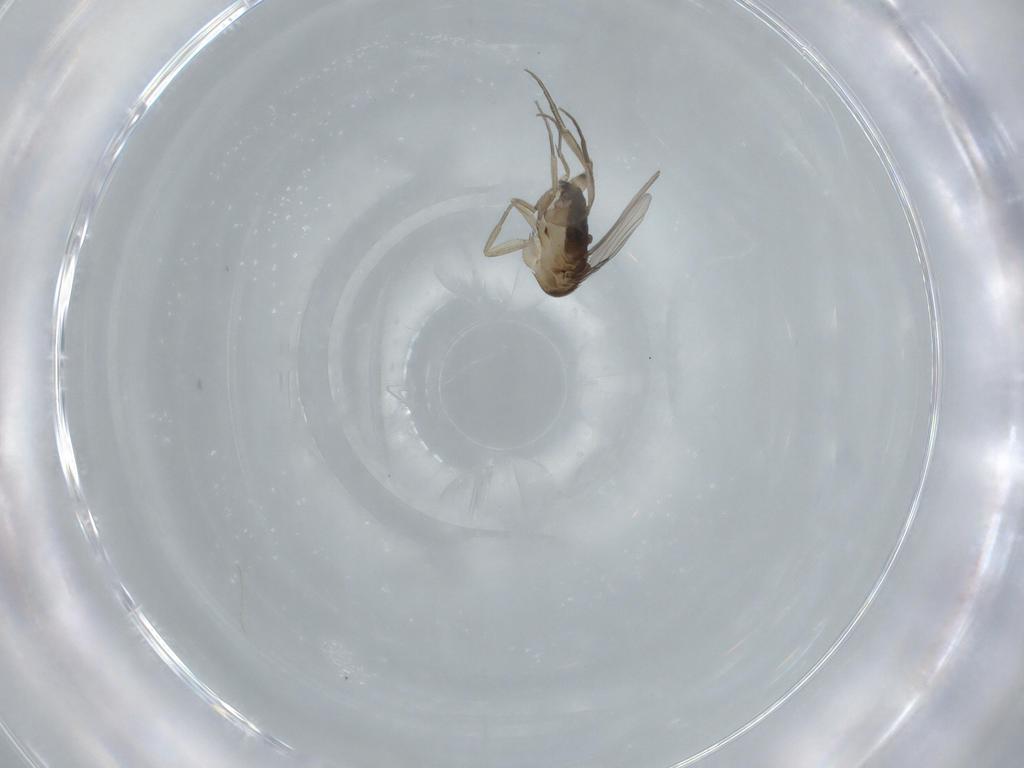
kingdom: Animalia
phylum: Arthropoda
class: Insecta
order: Diptera
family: Phoridae
